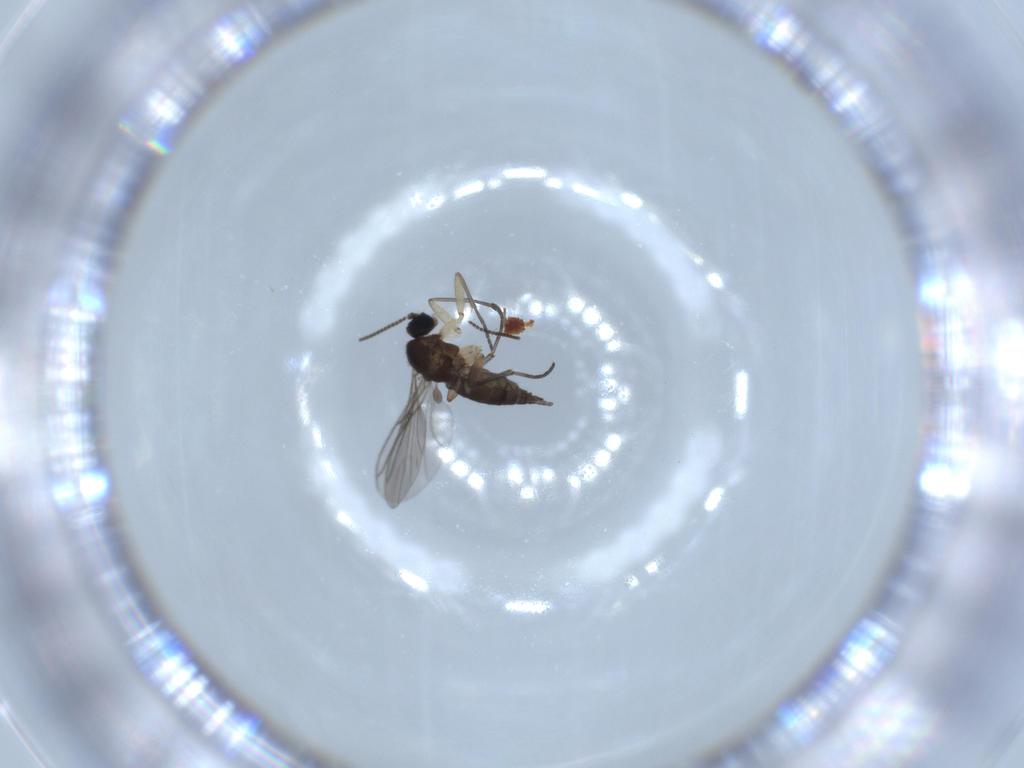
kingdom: Animalia
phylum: Arthropoda
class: Insecta
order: Diptera
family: Sciaridae
